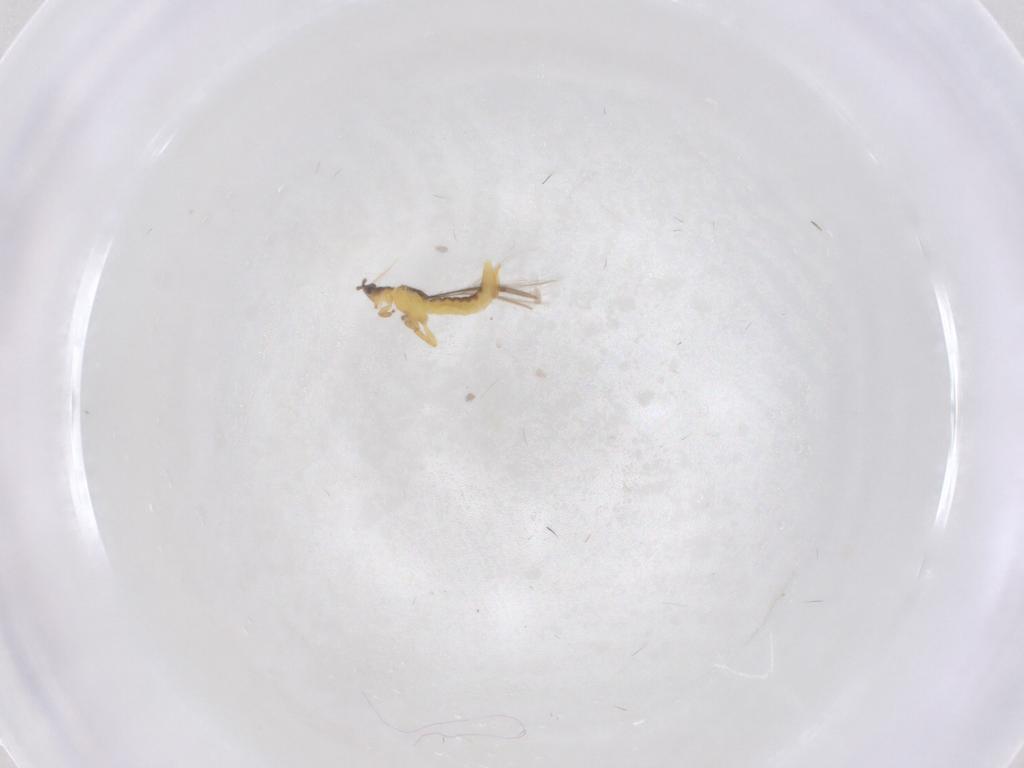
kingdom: Animalia
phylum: Arthropoda
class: Insecta
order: Thysanoptera
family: Thripidae
